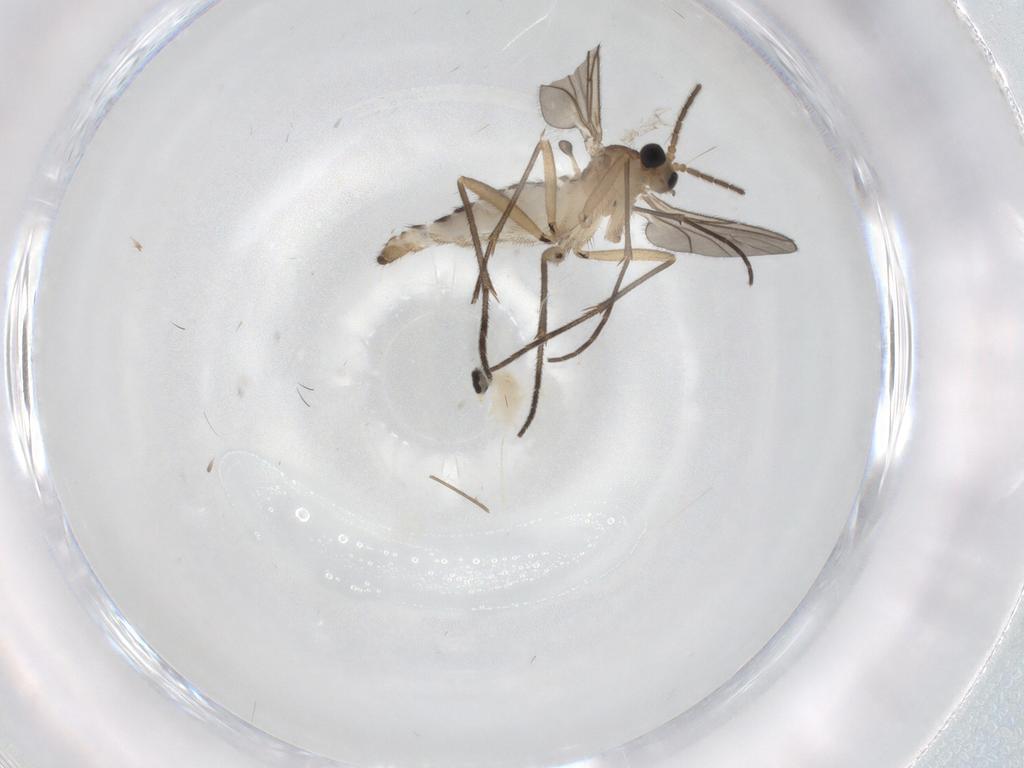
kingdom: Animalia
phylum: Arthropoda
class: Insecta
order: Diptera
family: Sciaridae
